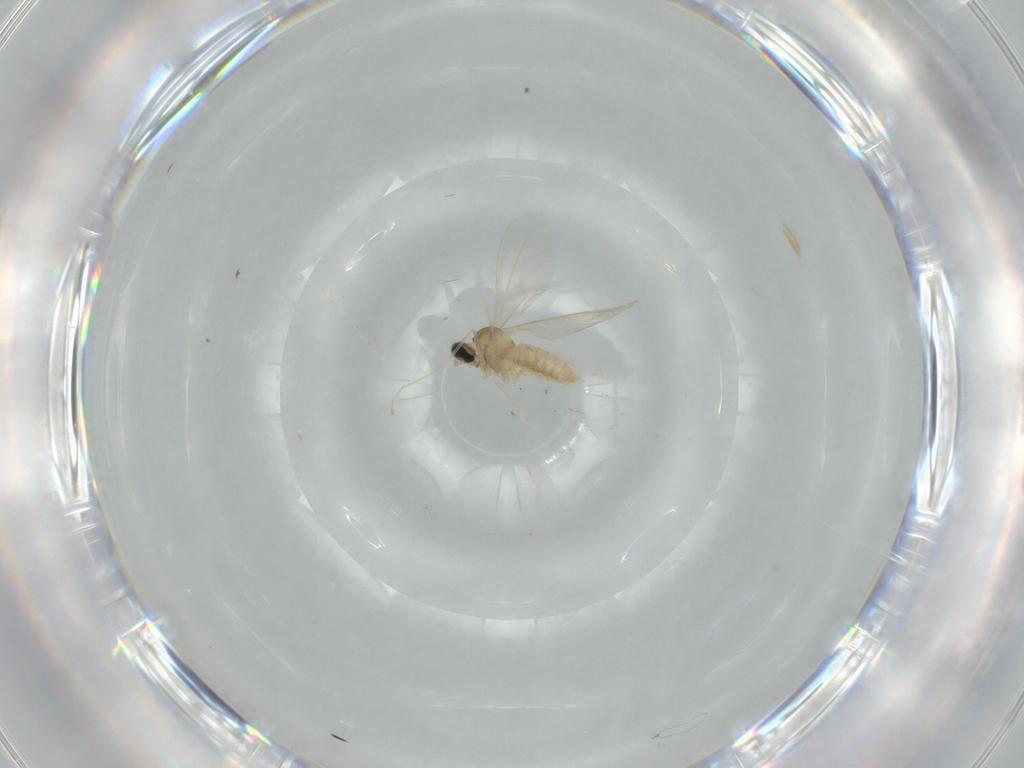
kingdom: Animalia
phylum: Arthropoda
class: Insecta
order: Diptera
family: Cecidomyiidae
